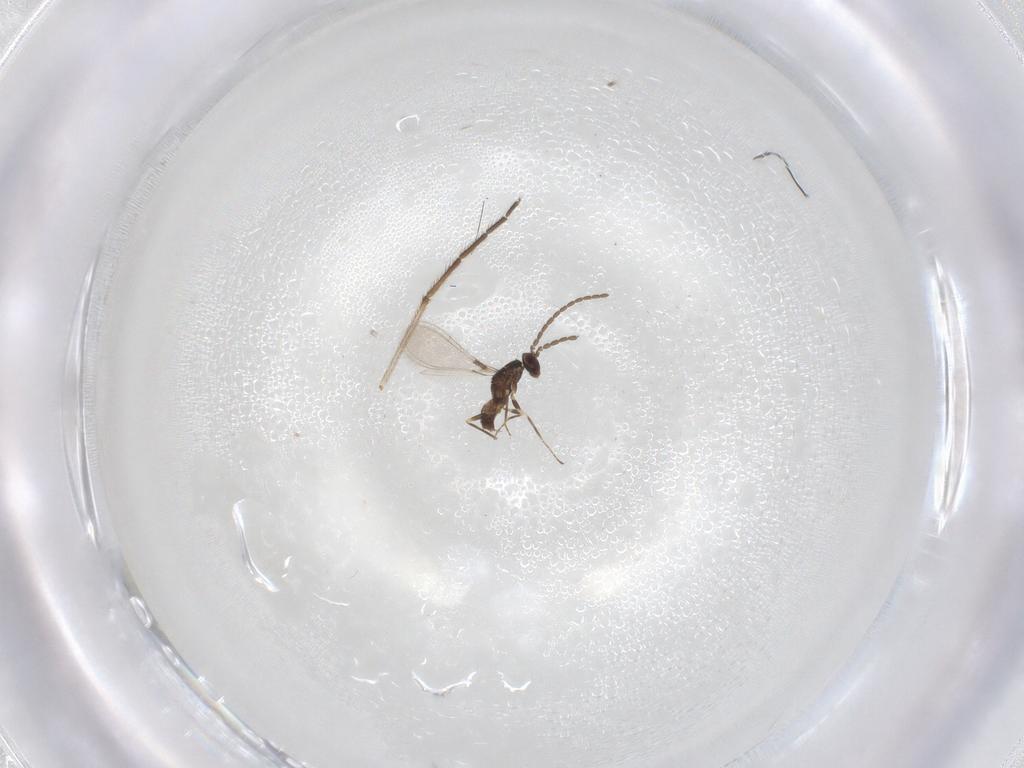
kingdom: Animalia
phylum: Arthropoda
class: Insecta
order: Hymenoptera
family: Mymaridae
